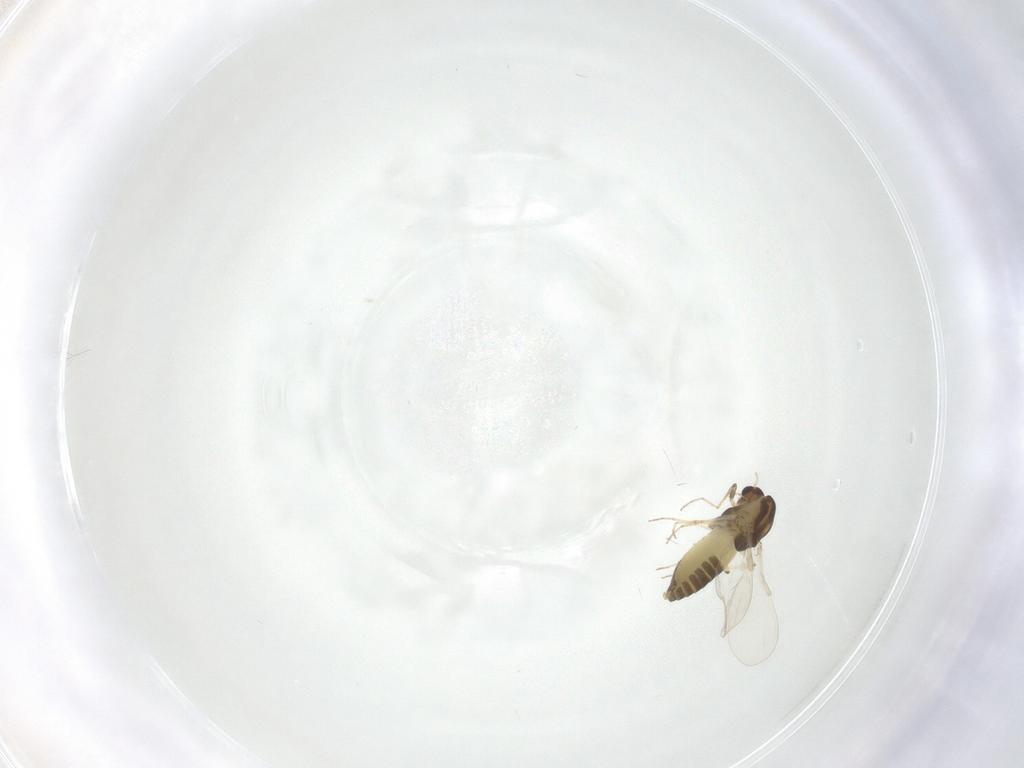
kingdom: Animalia
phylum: Arthropoda
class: Insecta
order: Diptera
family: Chironomidae
